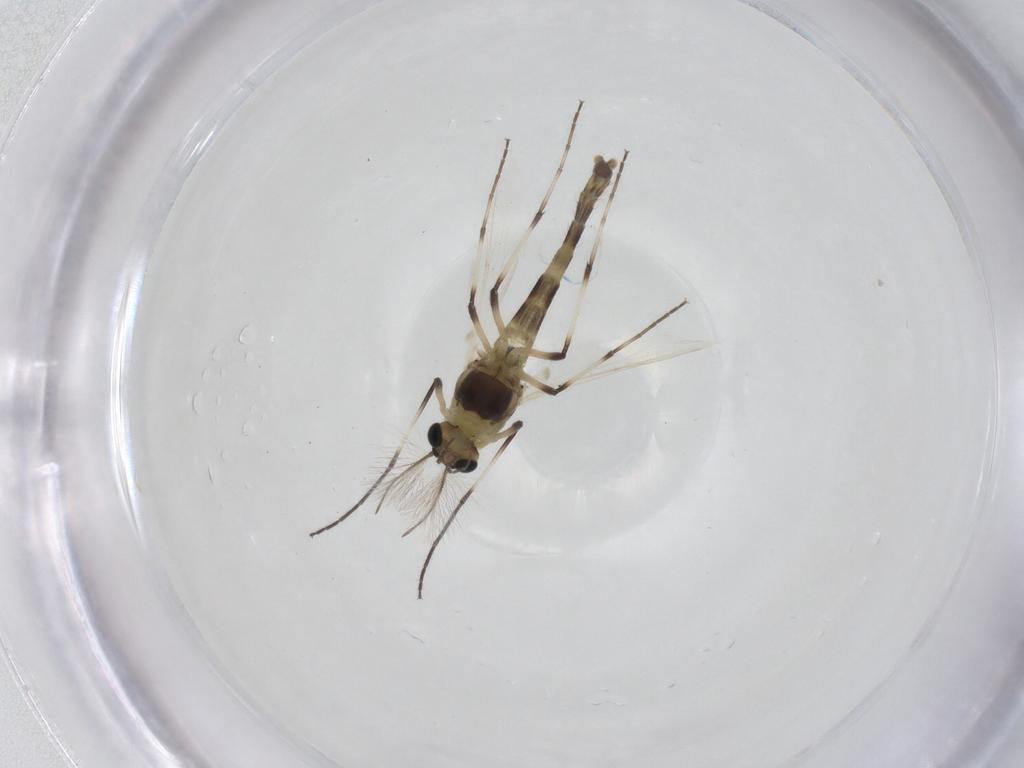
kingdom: Animalia
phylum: Arthropoda
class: Insecta
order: Diptera
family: Chironomidae
